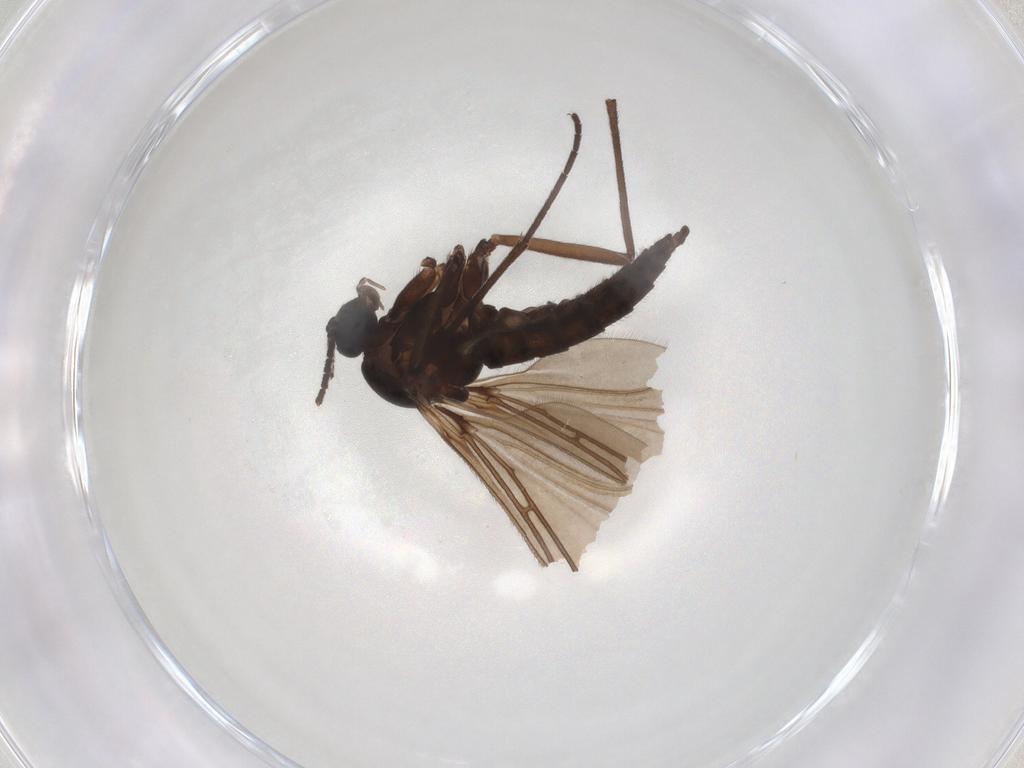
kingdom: Animalia
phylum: Arthropoda
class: Insecta
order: Diptera
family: Sciaridae
